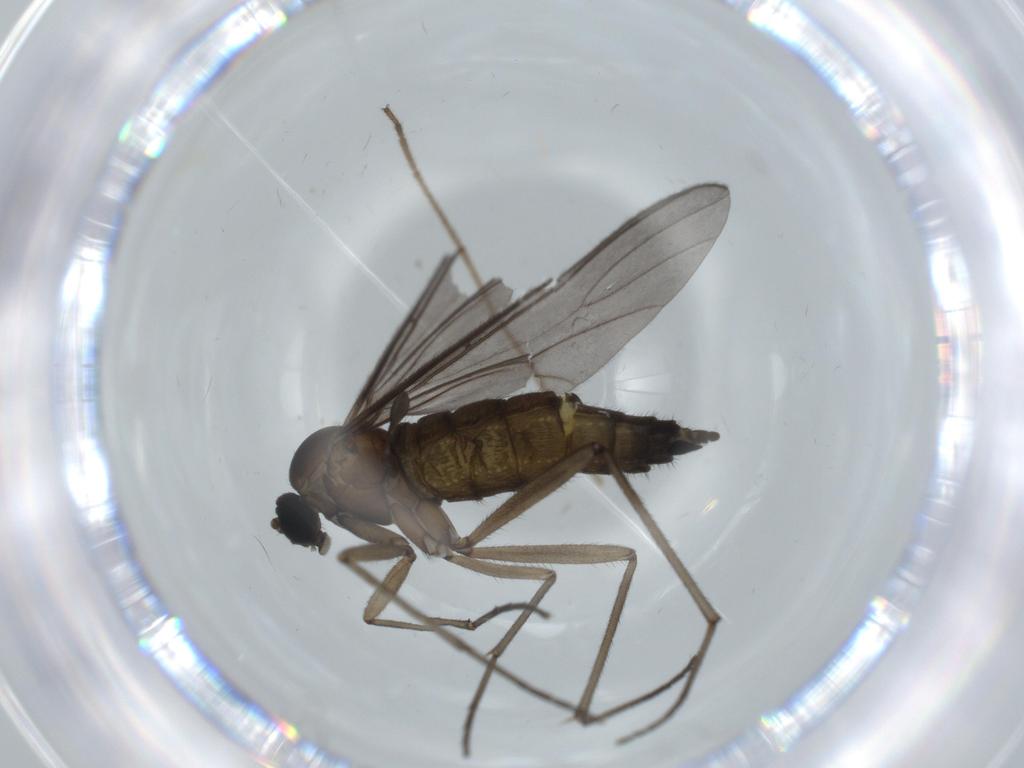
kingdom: Animalia
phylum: Arthropoda
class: Insecta
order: Diptera
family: Sciaridae
